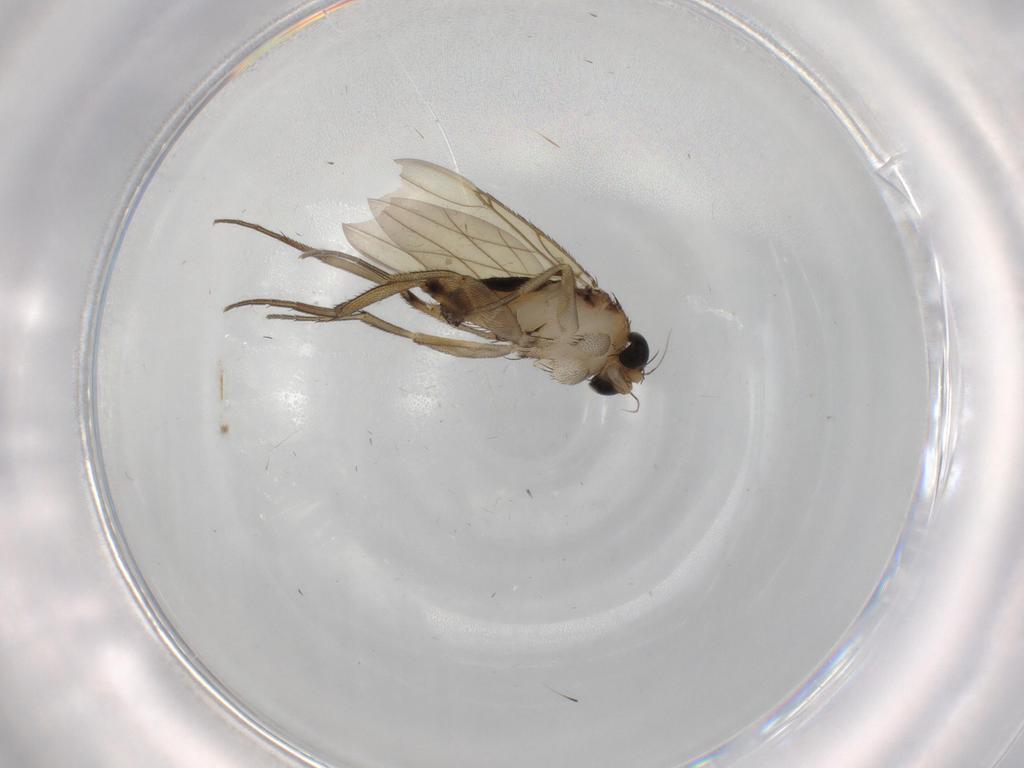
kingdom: Animalia
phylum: Arthropoda
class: Insecta
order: Diptera
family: Phoridae
